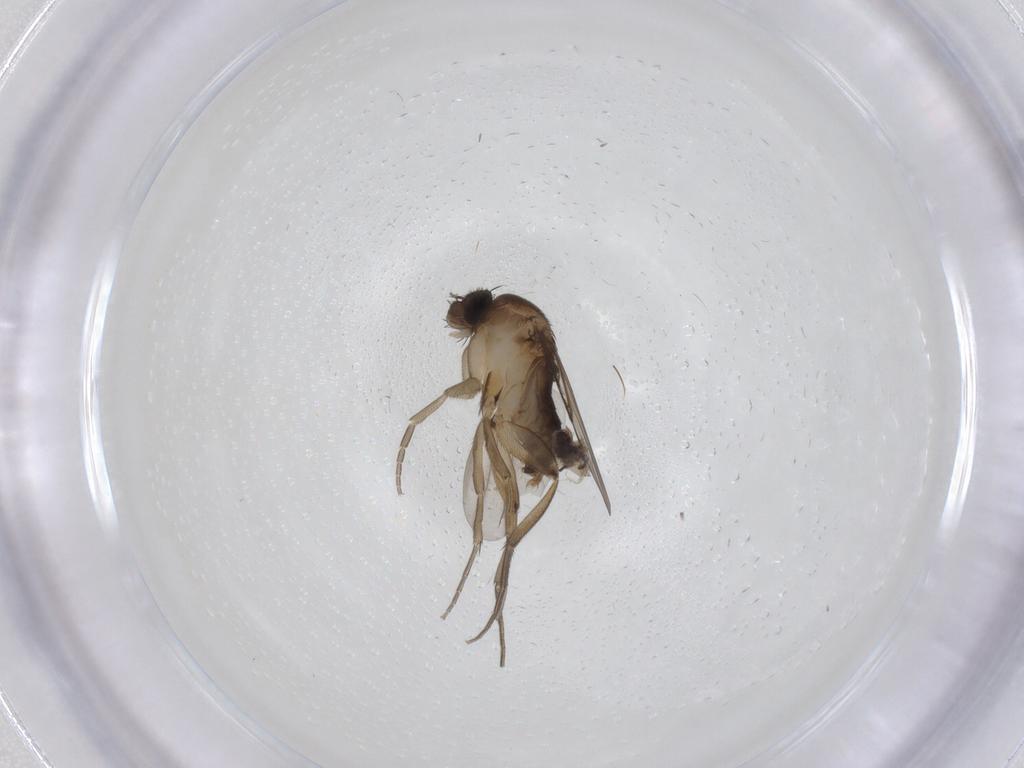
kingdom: Animalia
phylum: Arthropoda
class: Insecta
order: Diptera
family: Phoridae
